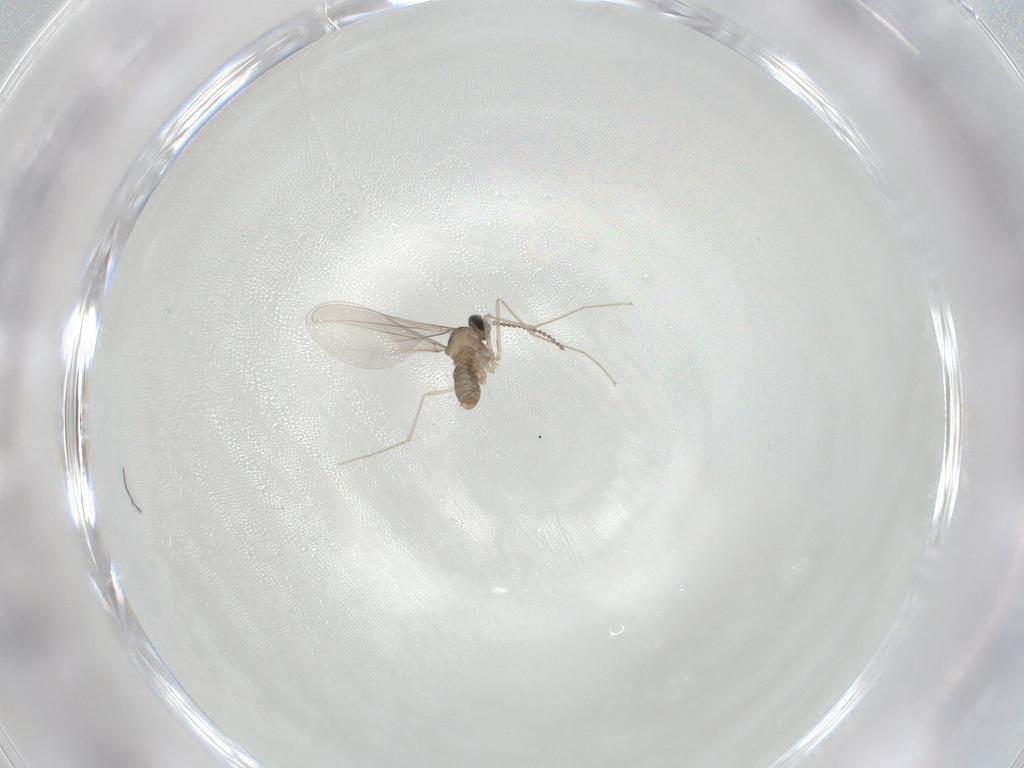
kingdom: Animalia
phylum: Arthropoda
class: Insecta
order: Diptera
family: Cecidomyiidae
